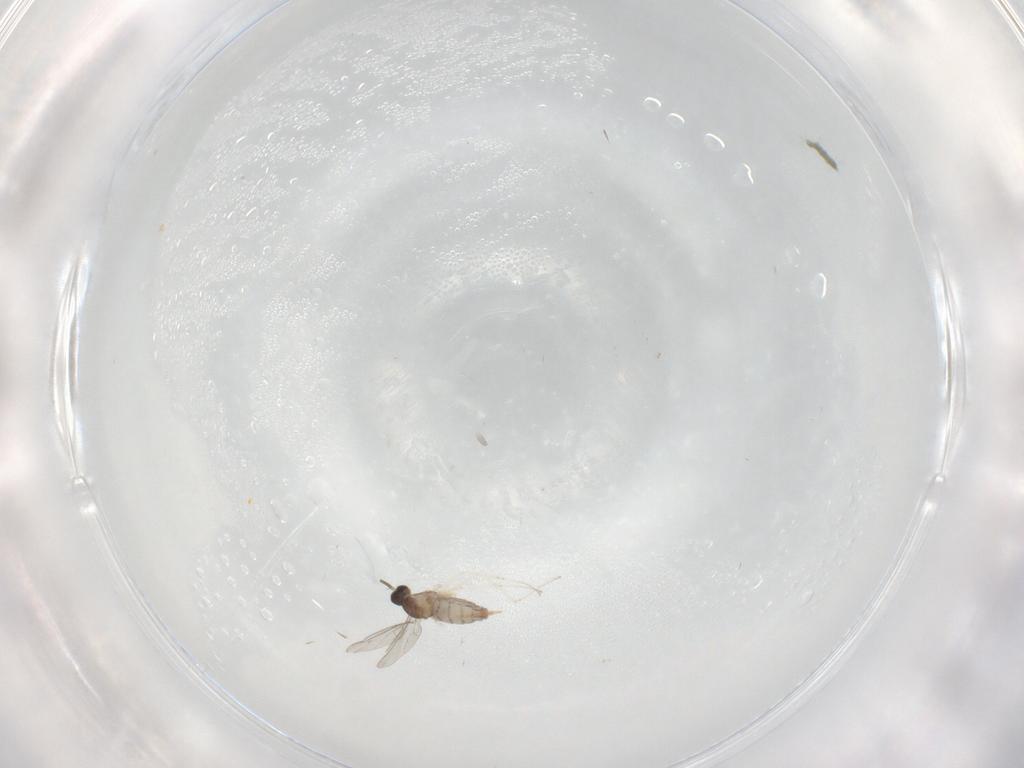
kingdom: Animalia
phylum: Arthropoda
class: Insecta
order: Diptera
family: Cecidomyiidae
